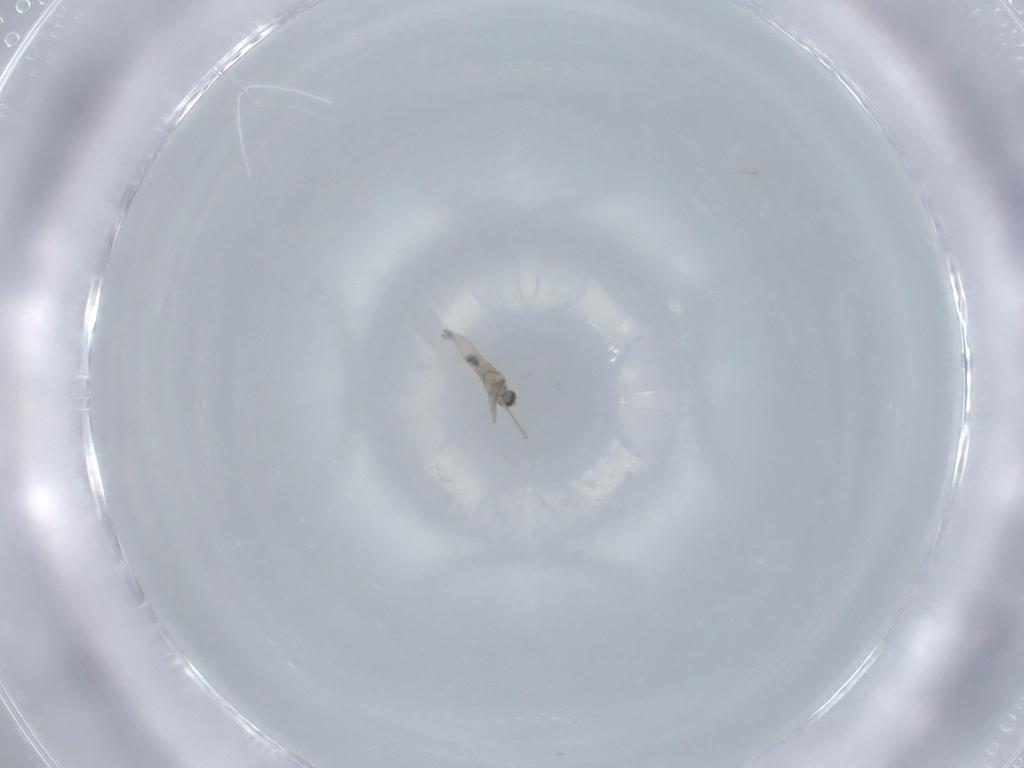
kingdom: Animalia
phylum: Arthropoda
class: Insecta
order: Diptera
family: Cecidomyiidae
